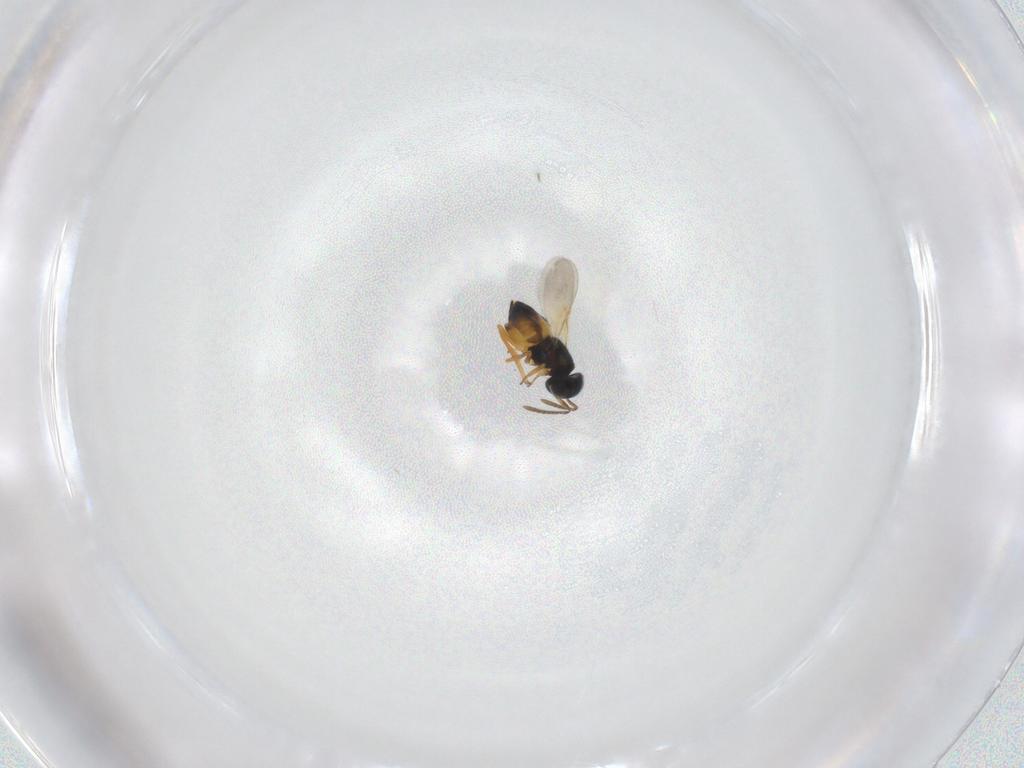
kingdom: Animalia
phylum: Arthropoda
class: Insecta
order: Hymenoptera
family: Encyrtidae
